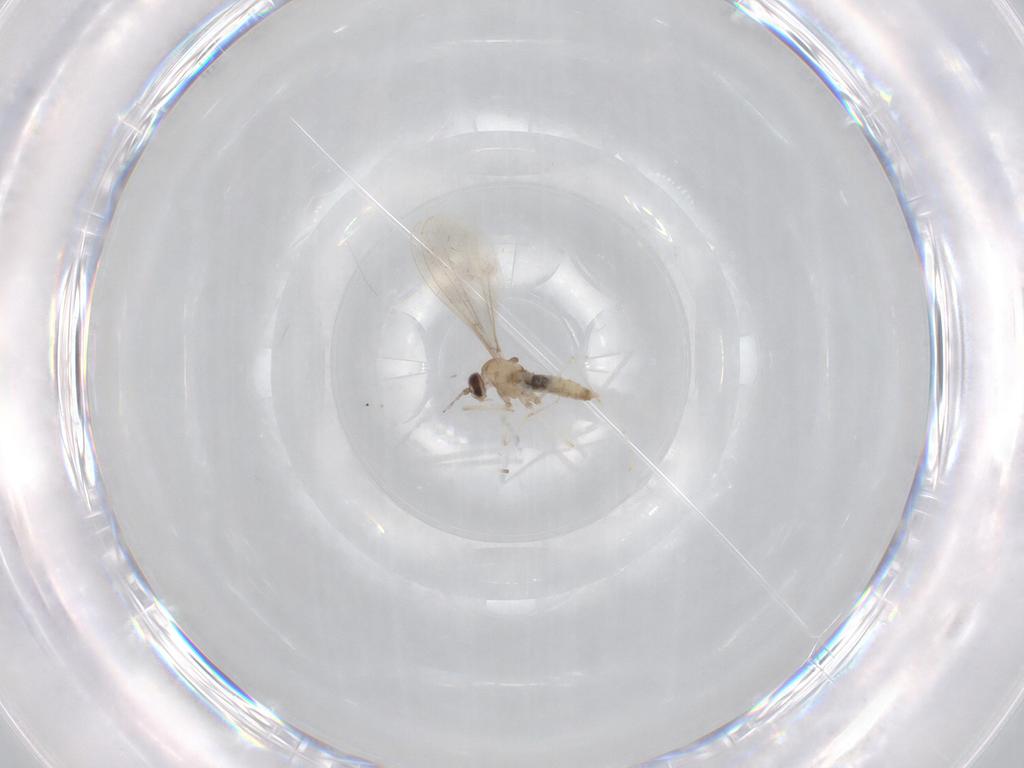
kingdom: Animalia
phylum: Arthropoda
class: Insecta
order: Diptera
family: Cecidomyiidae
